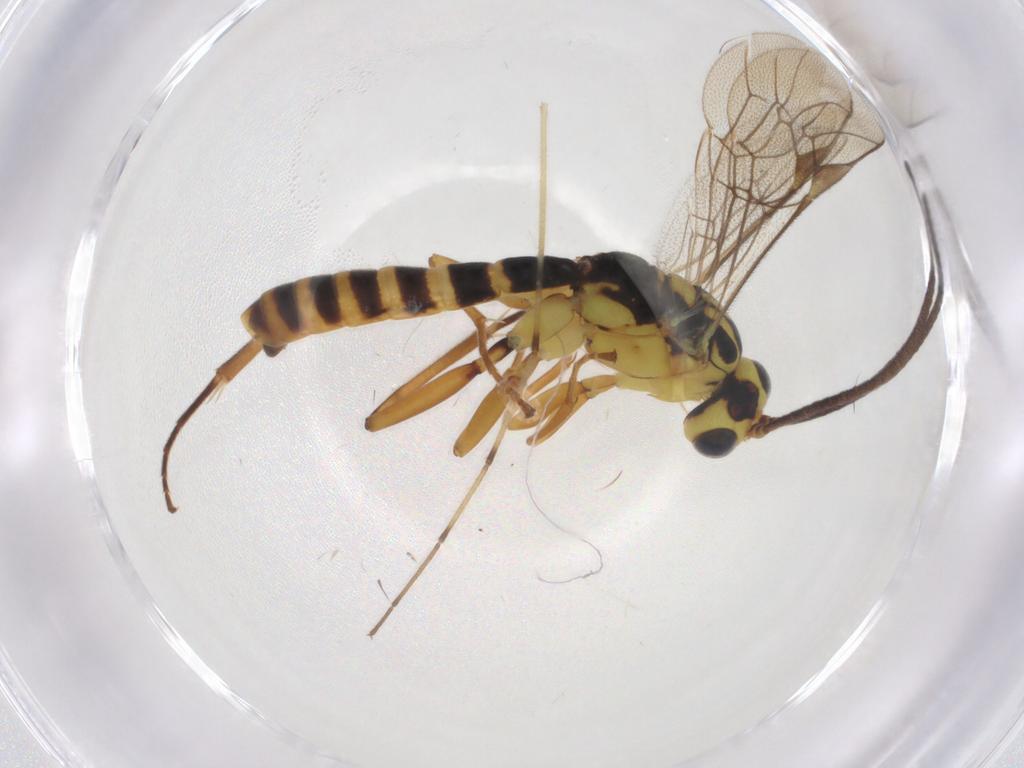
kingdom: Animalia
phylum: Arthropoda
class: Insecta
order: Hymenoptera
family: Ichneumonidae
